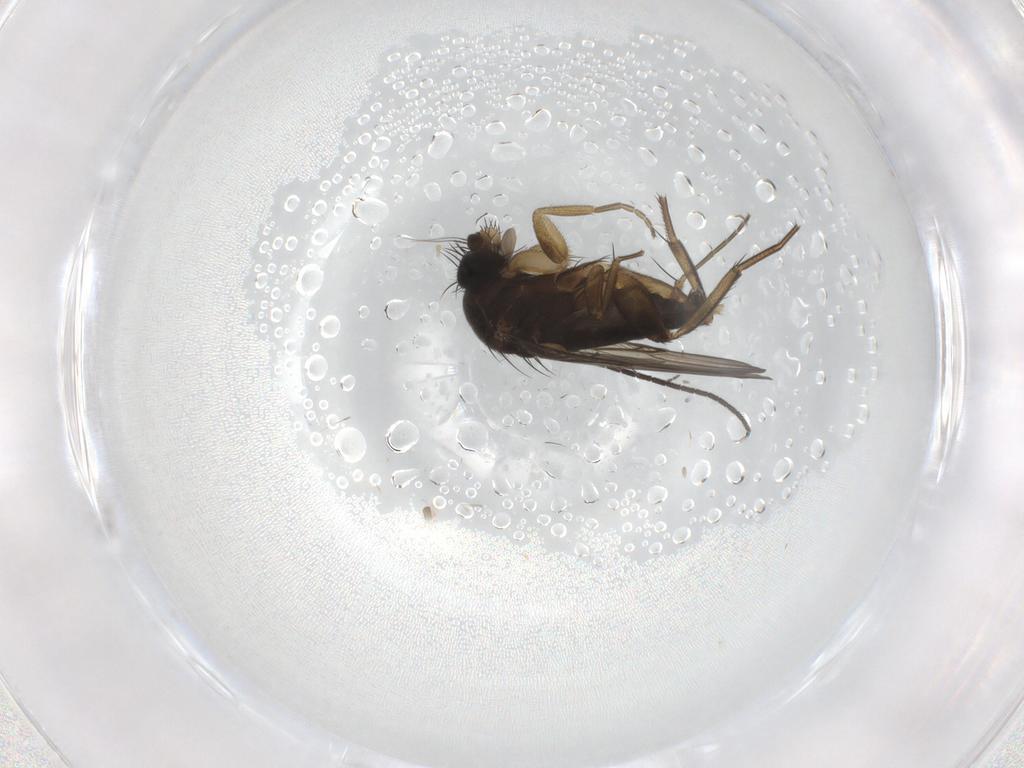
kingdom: Animalia
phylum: Arthropoda
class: Insecta
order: Diptera
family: Phoridae
